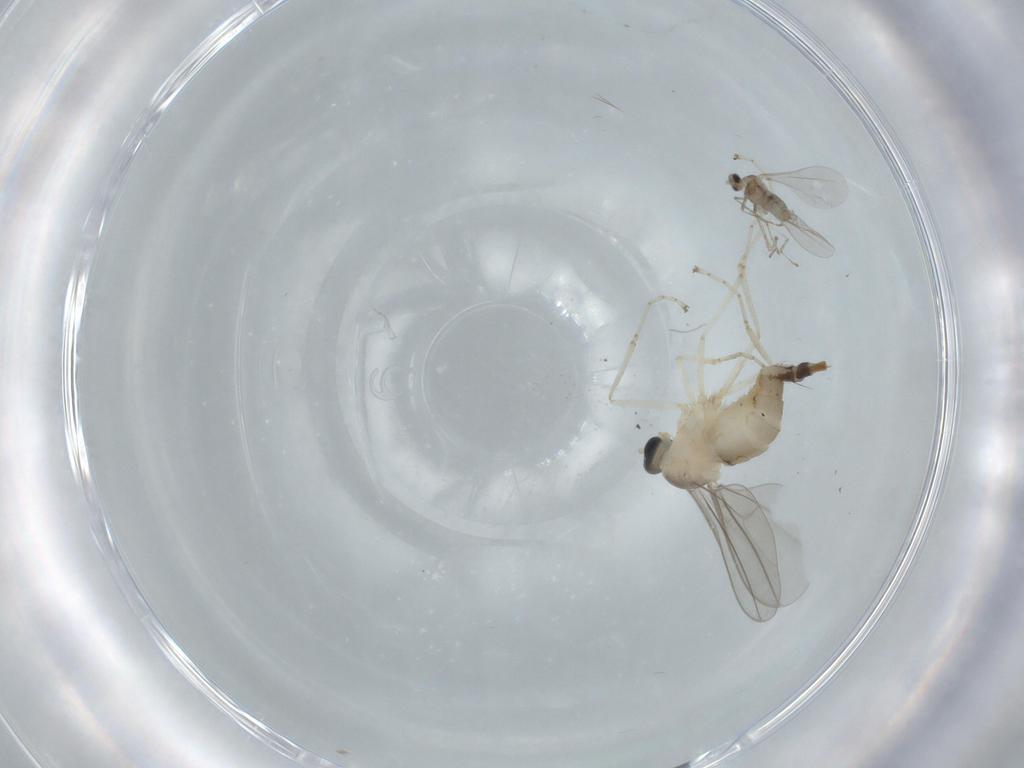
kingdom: Animalia
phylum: Arthropoda
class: Insecta
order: Diptera
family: Cecidomyiidae
